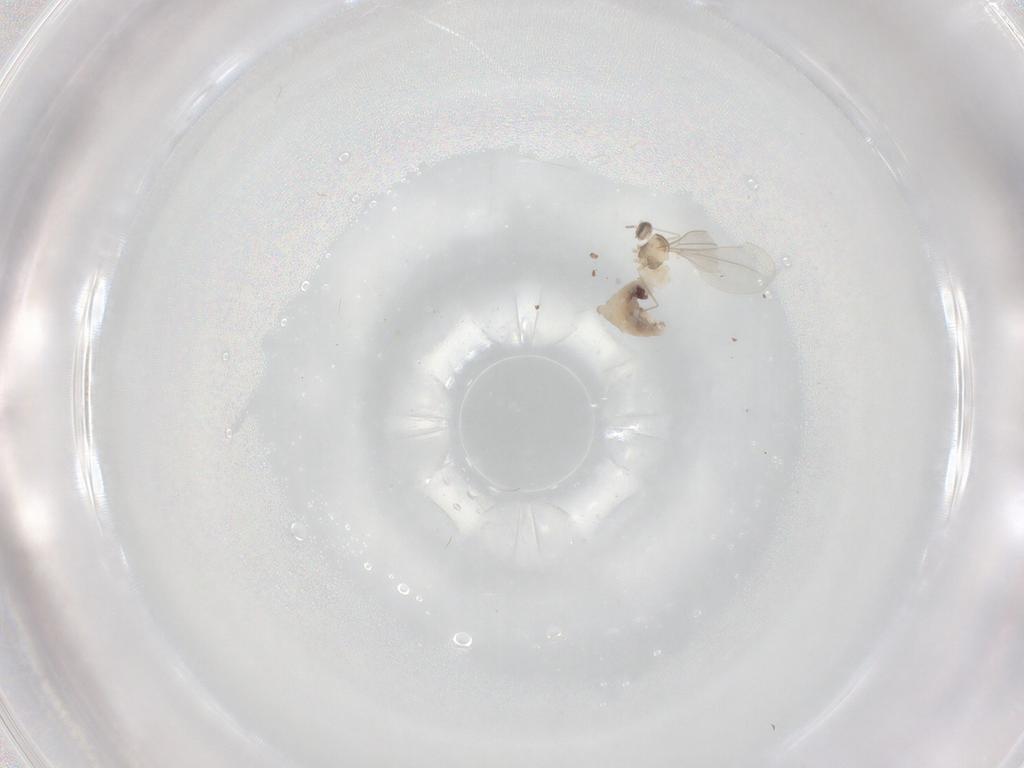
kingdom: Animalia
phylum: Arthropoda
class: Insecta
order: Diptera
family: Cecidomyiidae
